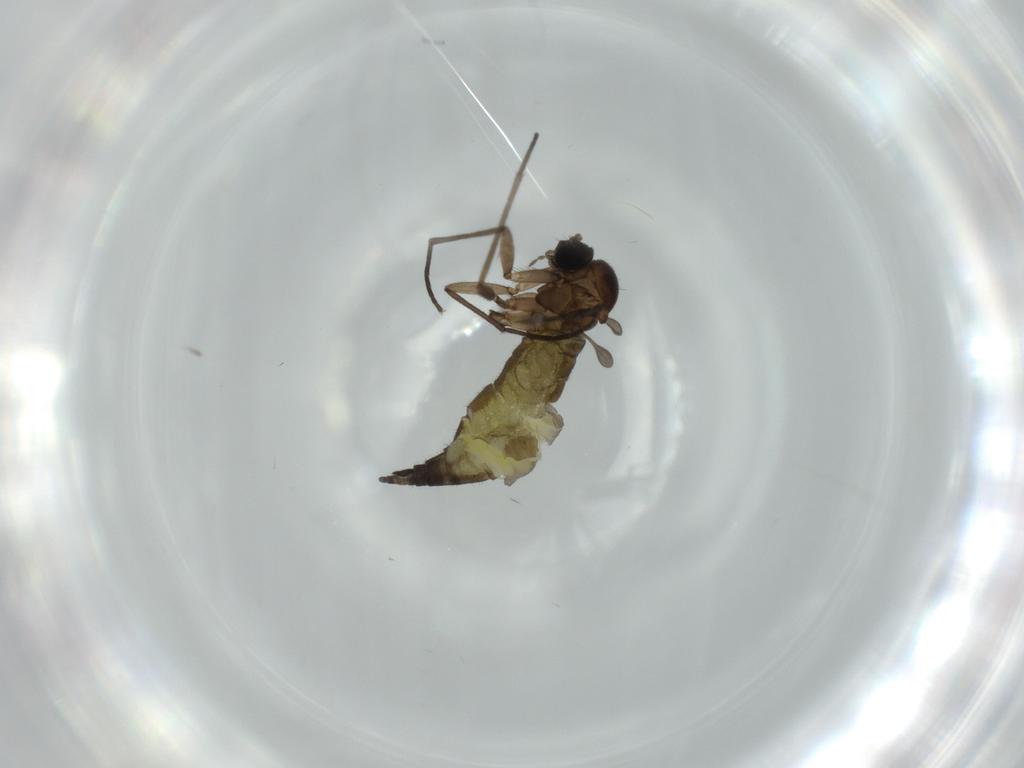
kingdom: Animalia
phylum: Arthropoda
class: Insecta
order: Diptera
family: Sciaridae
